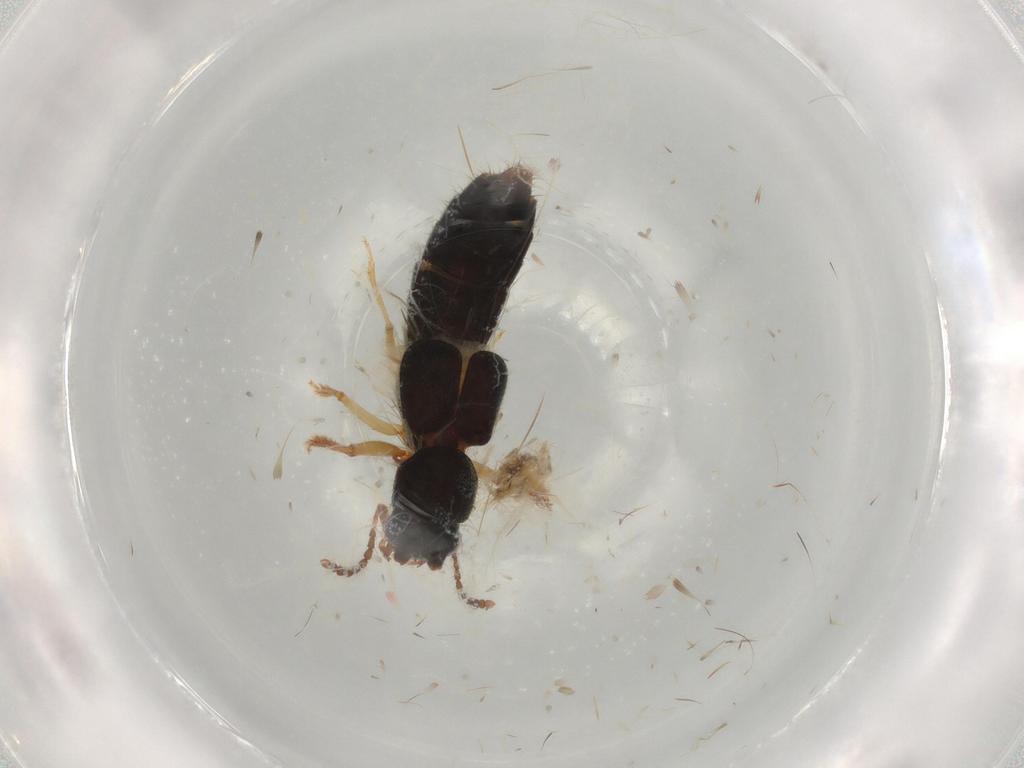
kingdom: Animalia
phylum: Arthropoda
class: Insecta
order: Coleoptera
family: Staphylinidae
